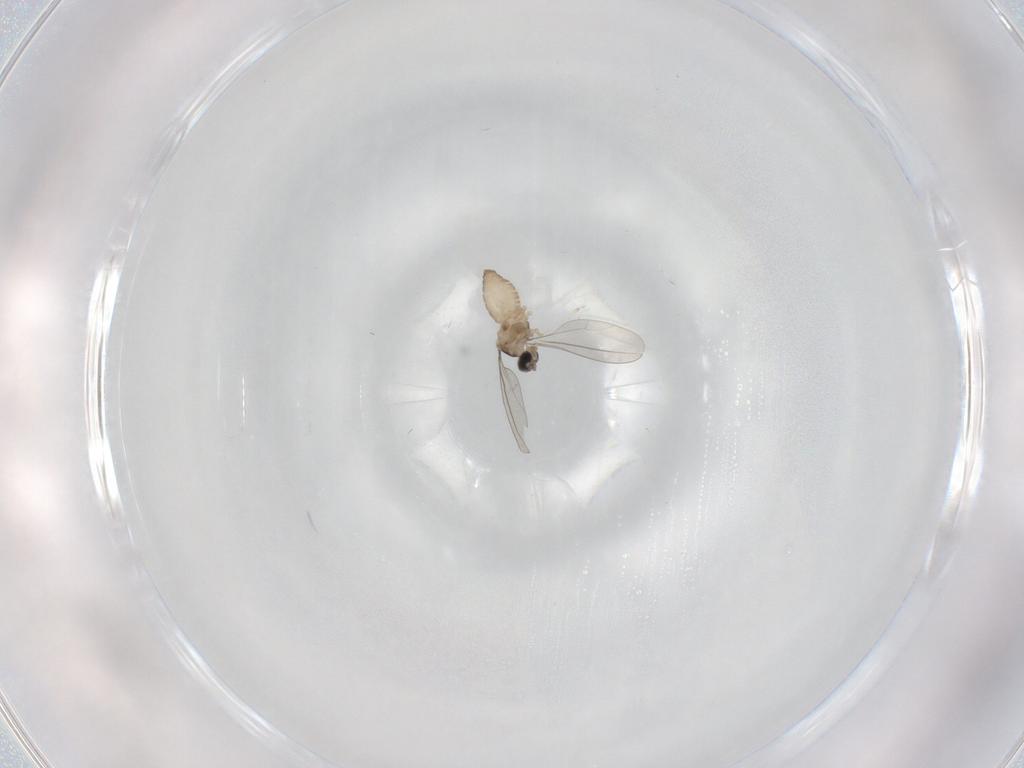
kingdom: Animalia
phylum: Arthropoda
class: Insecta
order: Diptera
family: Cecidomyiidae
